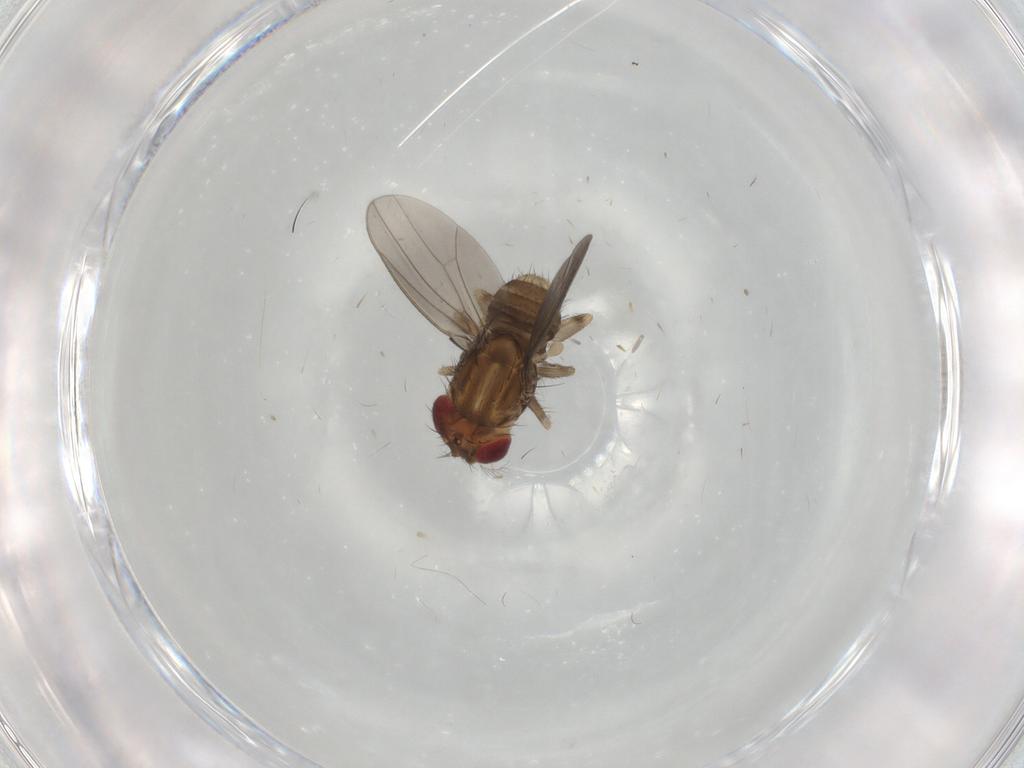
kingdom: Animalia
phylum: Arthropoda
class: Insecta
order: Diptera
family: Drosophilidae
